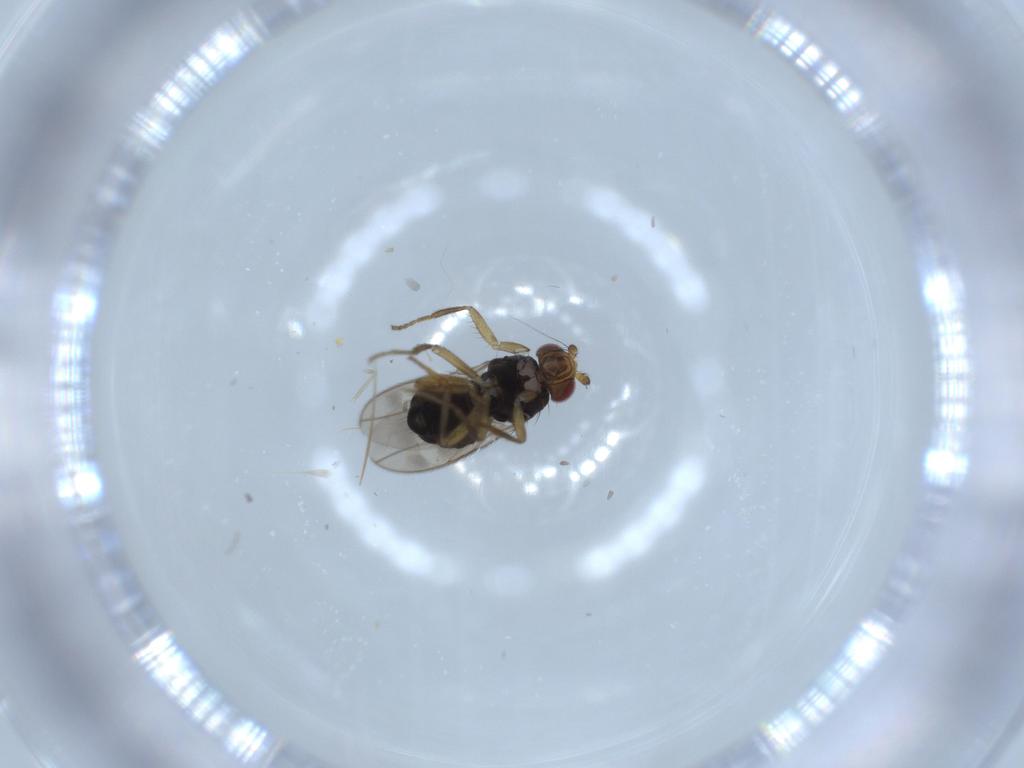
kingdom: Animalia
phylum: Arthropoda
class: Insecta
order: Diptera
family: Sphaeroceridae
